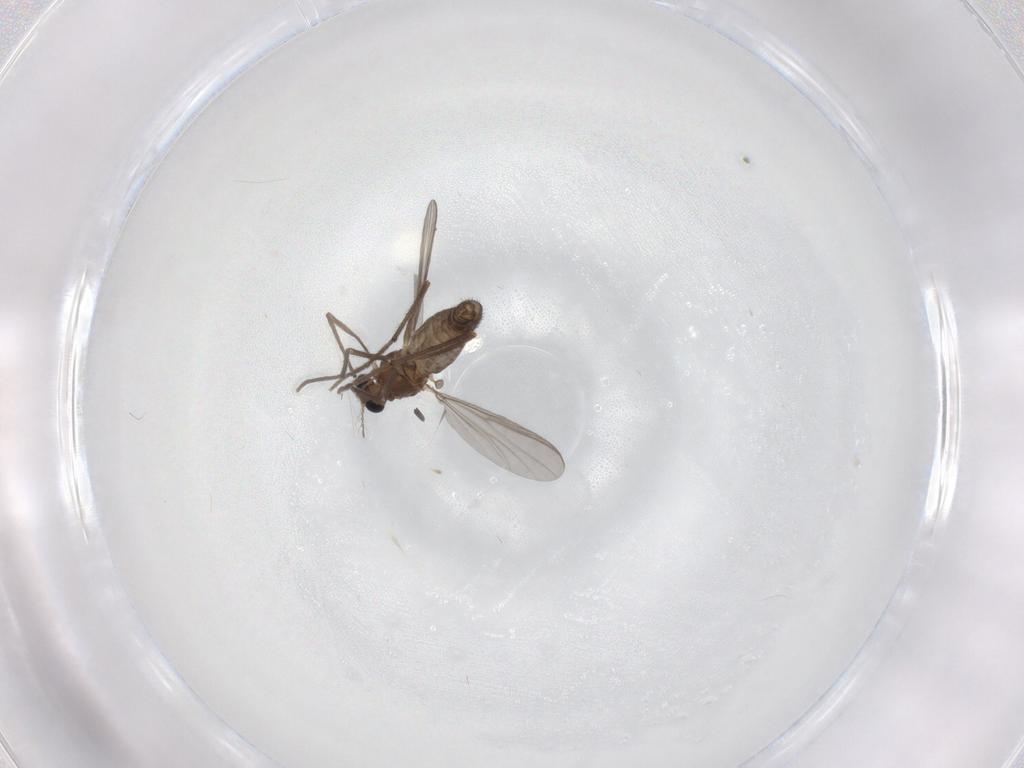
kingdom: Animalia
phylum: Arthropoda
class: Insecta
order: Diptera
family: Chironomidae
